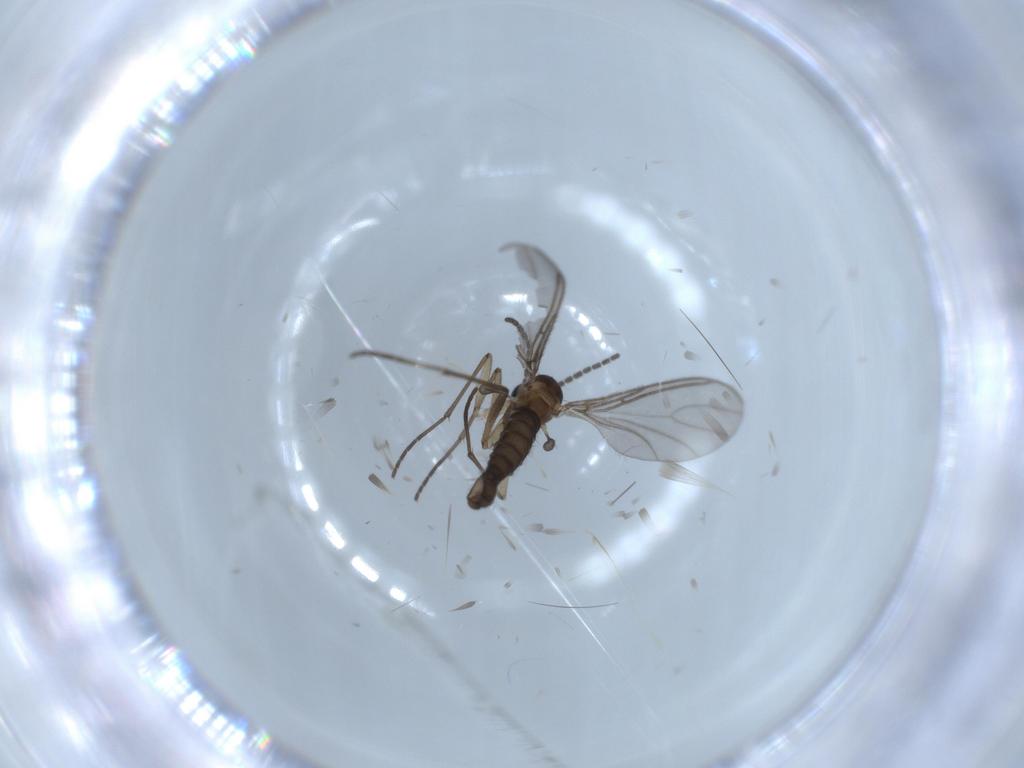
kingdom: Animalia
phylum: Arthropoda
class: Insecta
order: Diptera
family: Sciaridae
